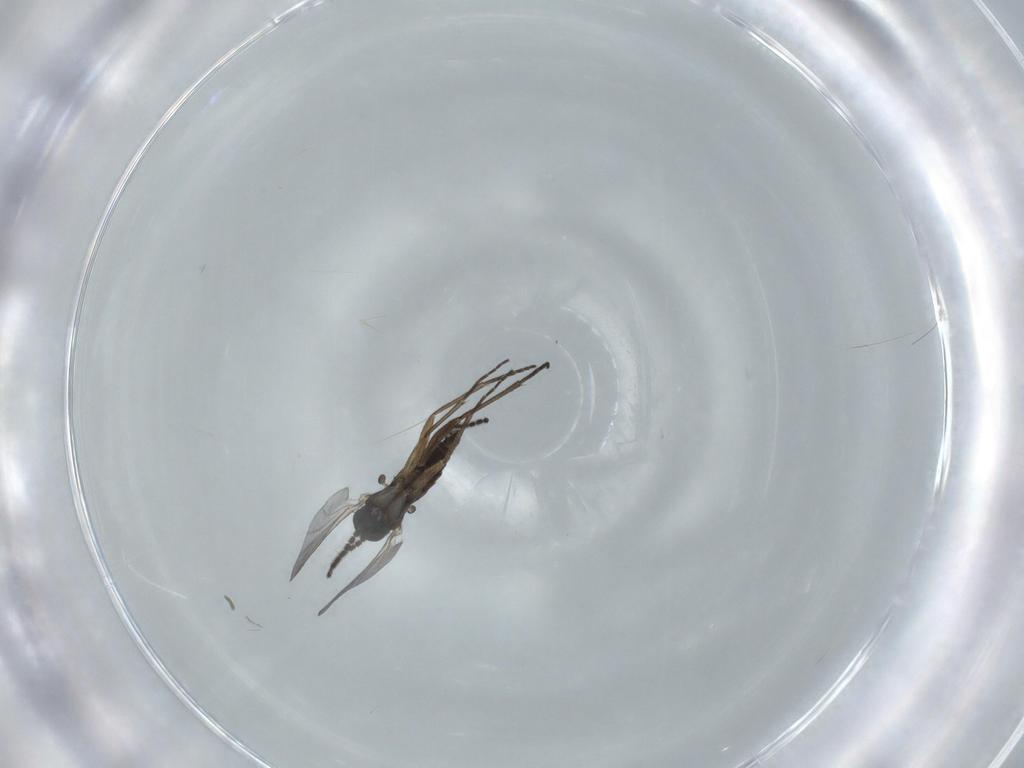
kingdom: Animalia
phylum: Arthropoda
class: Insecta
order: Diptera
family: Sciaridae
